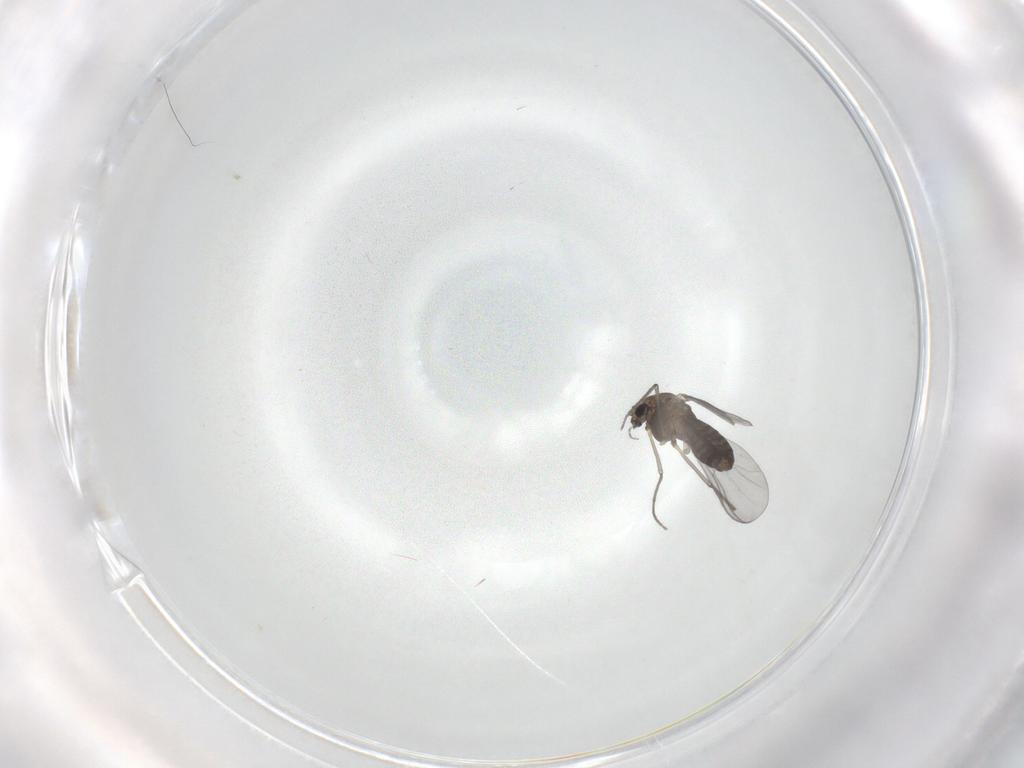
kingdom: Animalia
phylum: Arthropoda
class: Insecta
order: Diptera
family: Chironomidae
